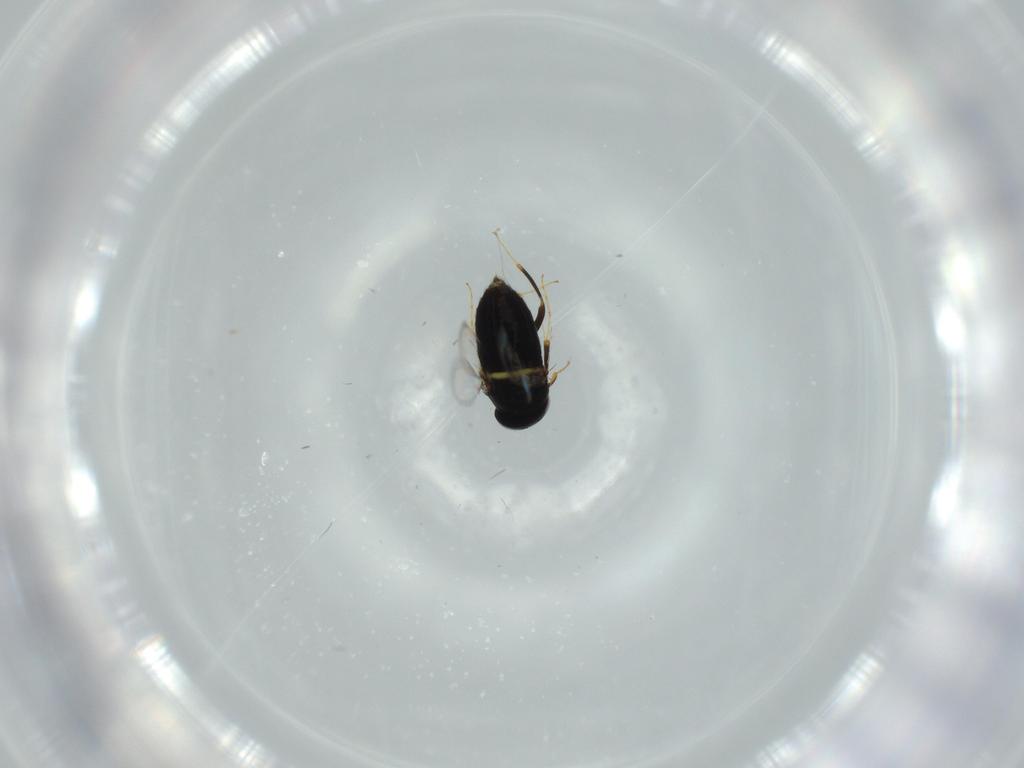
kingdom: Animalia
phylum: Arthropoda
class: Insecta
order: Hymenoptera
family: Signiphoridae
